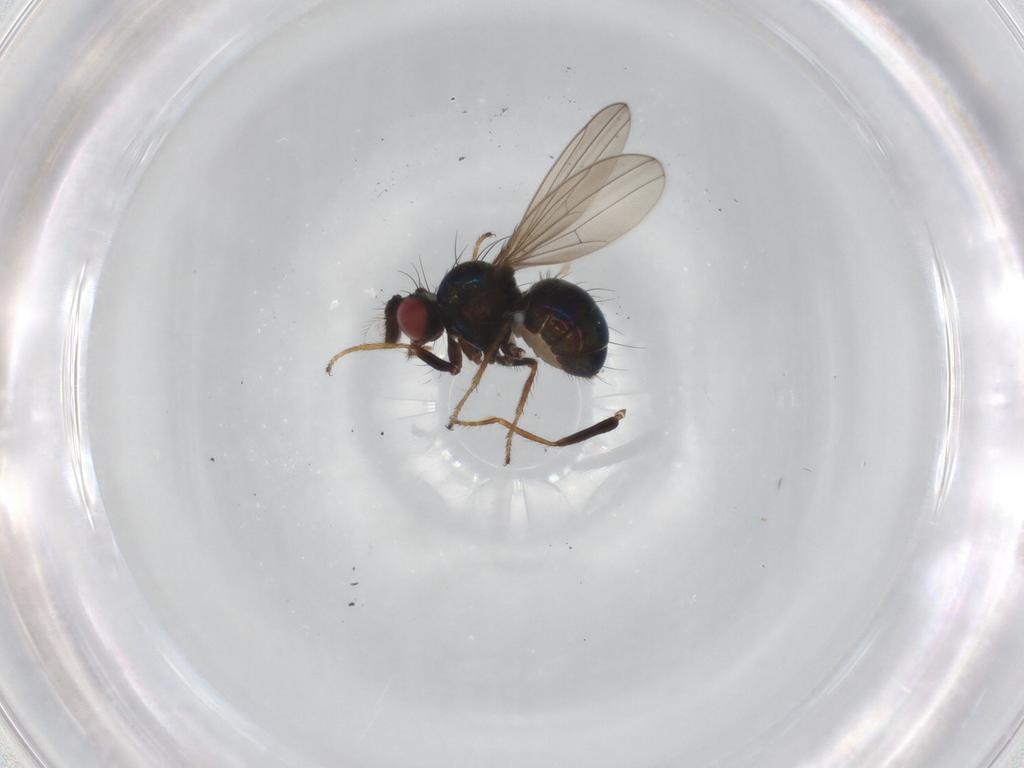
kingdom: Animalia
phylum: Arthropoda
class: Insecta
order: Diptera
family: Ephydridae
